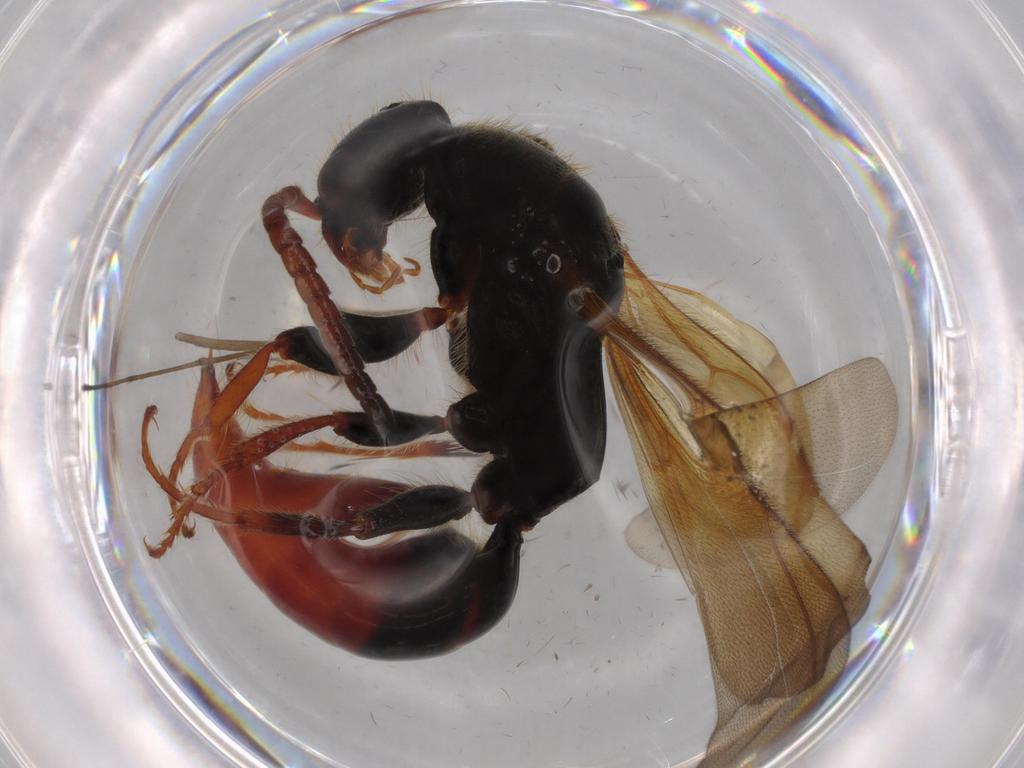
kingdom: Animalia
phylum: Arthropoda
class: Insecta
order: Hymenoptera
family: Bethylidae
